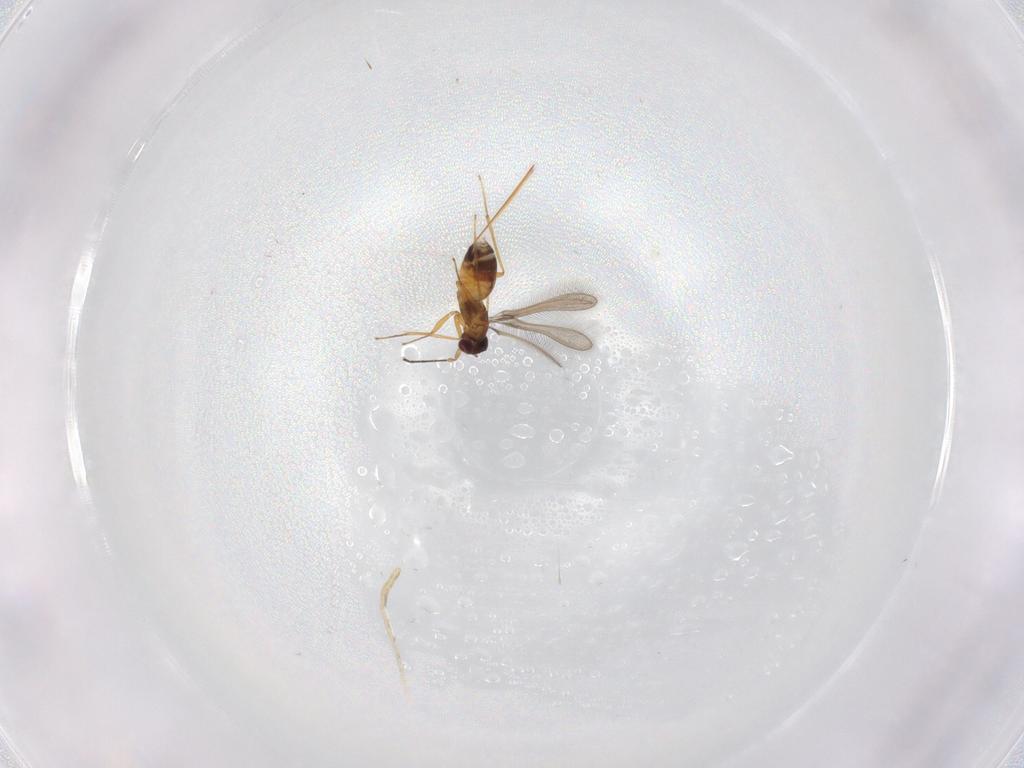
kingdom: Animalia
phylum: Arthropoda
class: Insecta
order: Hymenoptera
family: Mymaridae
